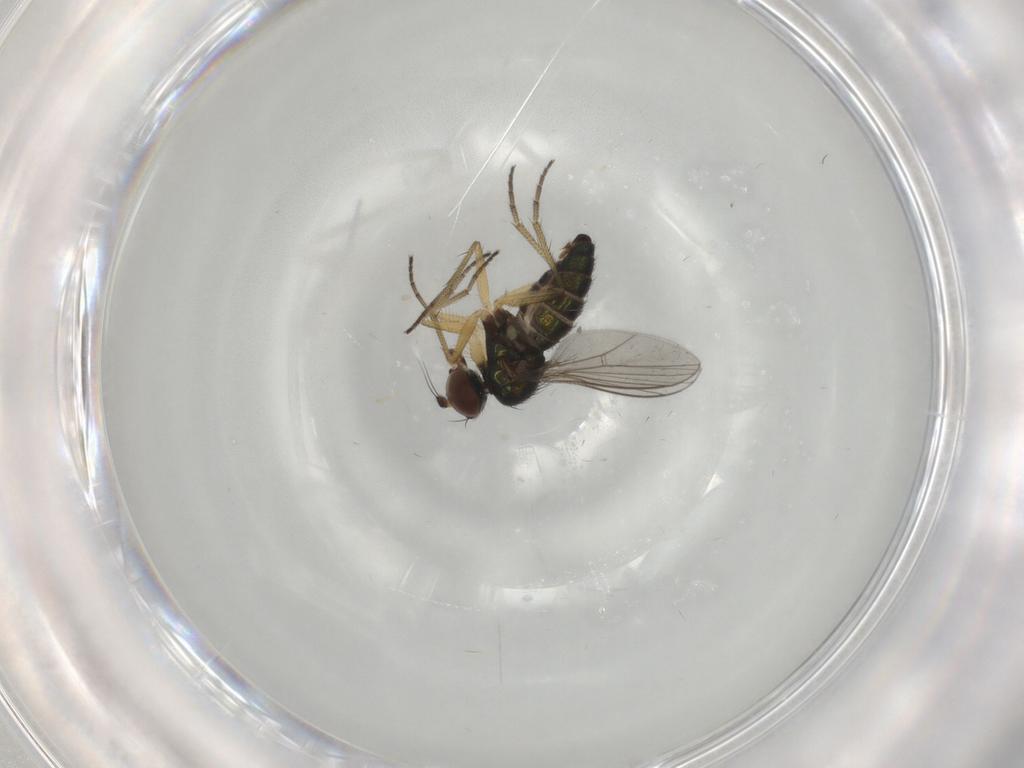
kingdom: Animalia
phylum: Arthropoda
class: Insecta
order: Diptera
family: Dolichopodidae
